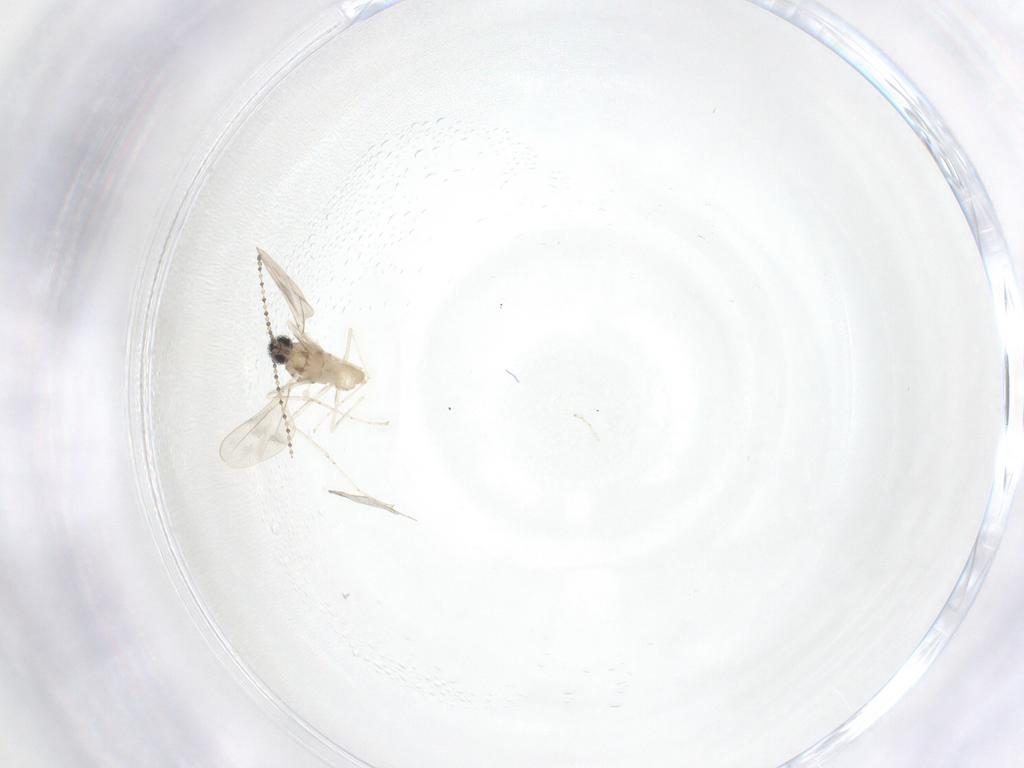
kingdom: Animalia
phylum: Arthropoda
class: Insecta
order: Diptera
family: Cecidomyiidae
